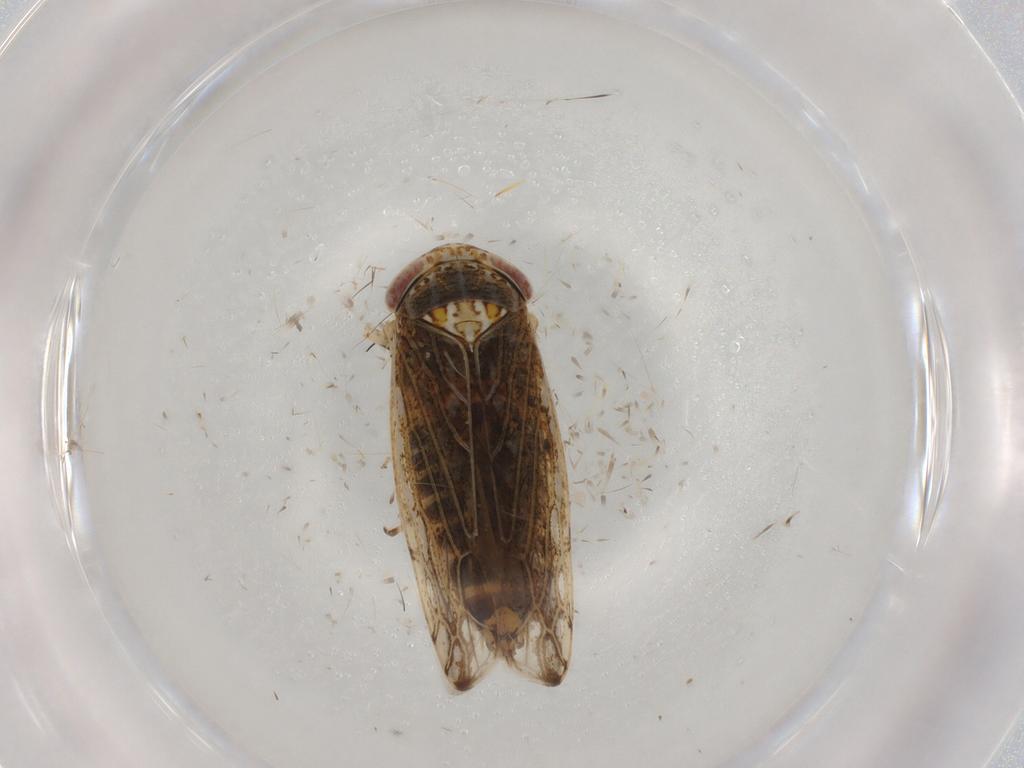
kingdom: Animalia
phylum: Arthropoda
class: Insecta
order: Hemiptera
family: Cicadellidae
